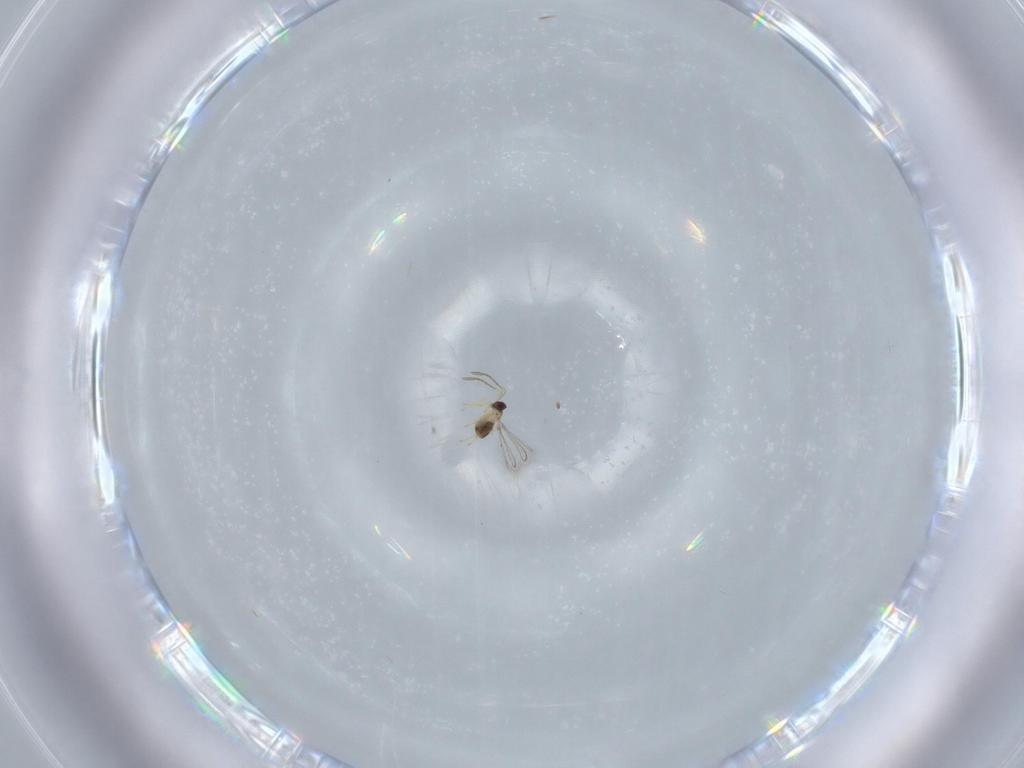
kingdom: Animalia
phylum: Arthropoda
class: Insecta
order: Hymenoptera
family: Mymaridae
